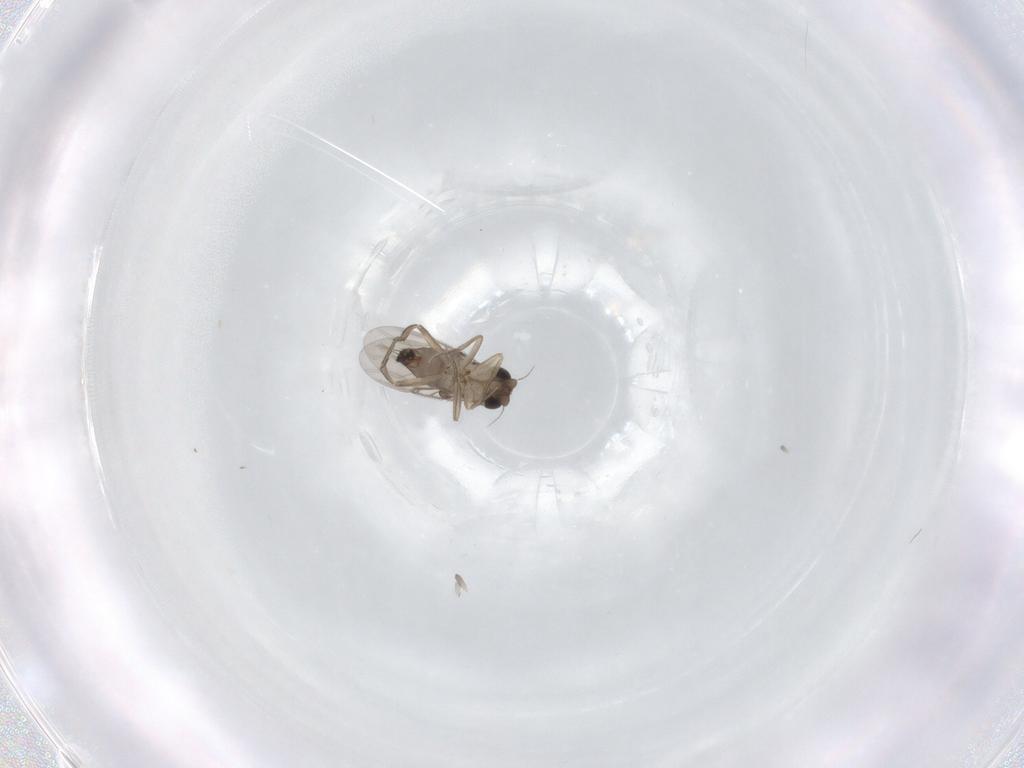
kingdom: Animalia
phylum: Arthropoda
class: Insecta
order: Diptera
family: Phoridae
